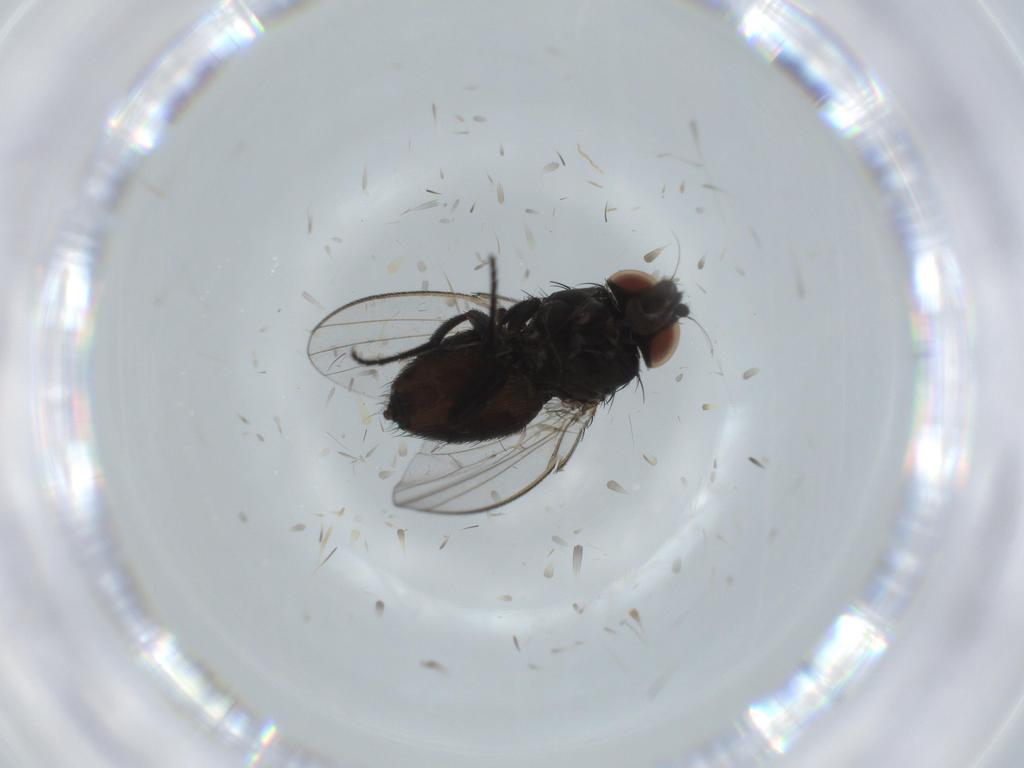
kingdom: Animalia
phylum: Arthropoda
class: Insecta
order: Diptera
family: Milichiidae
